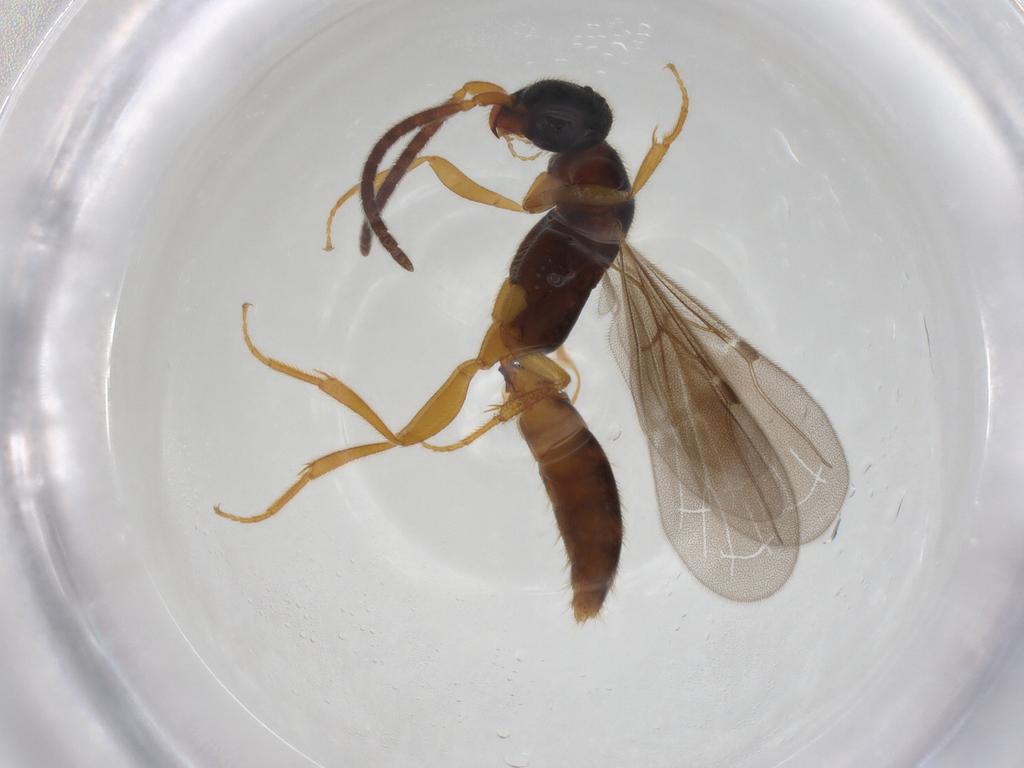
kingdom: Animalia
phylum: Arthropoda
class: Insecta
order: Hymenoptera
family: Bethylidae
